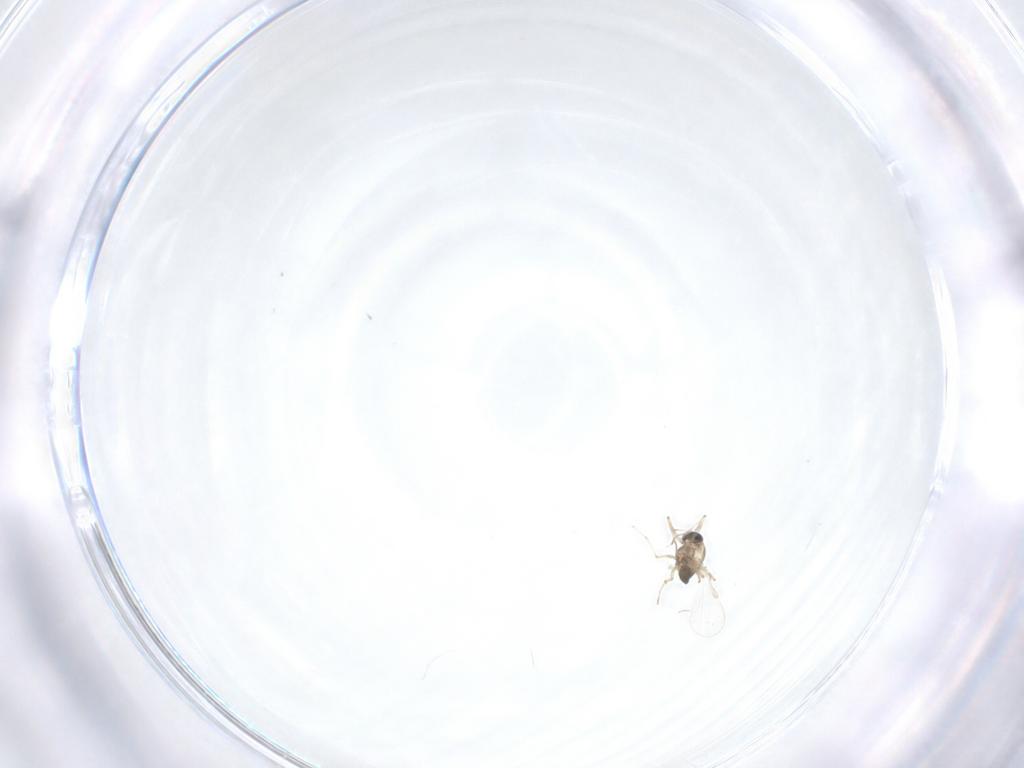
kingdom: Animalia
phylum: Arthropoda
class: Insecta
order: Diptera
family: Chironomidae
